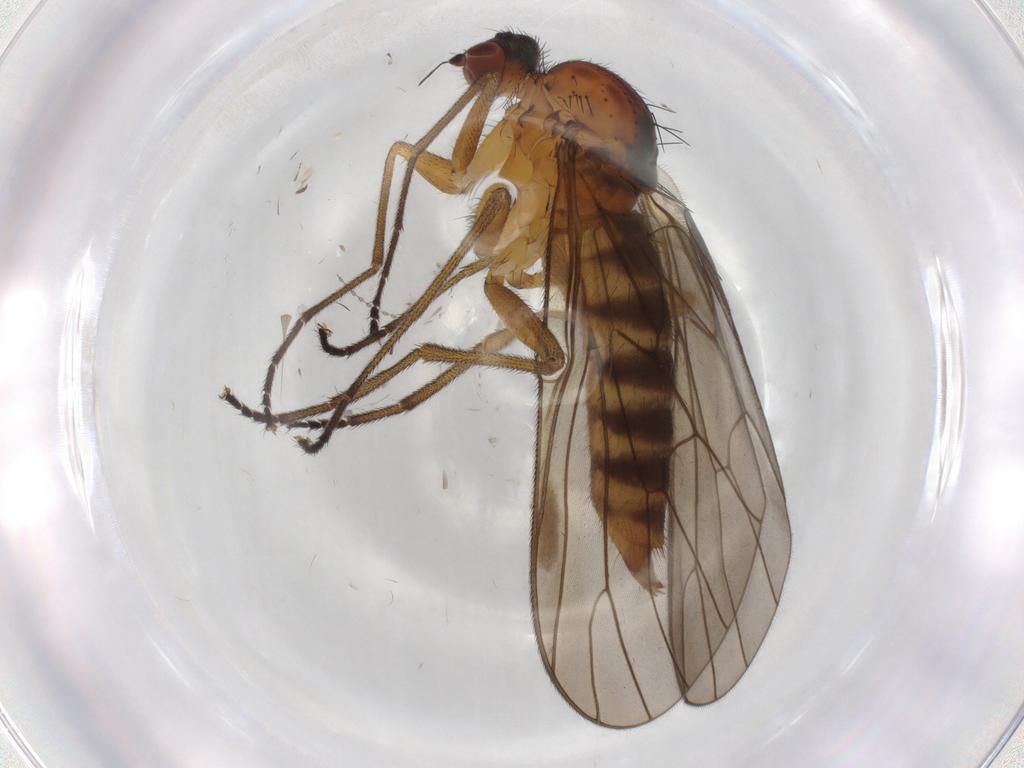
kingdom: Animalia
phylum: Arthropoda
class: Insecta
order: Diptera
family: Brachystomatidae
